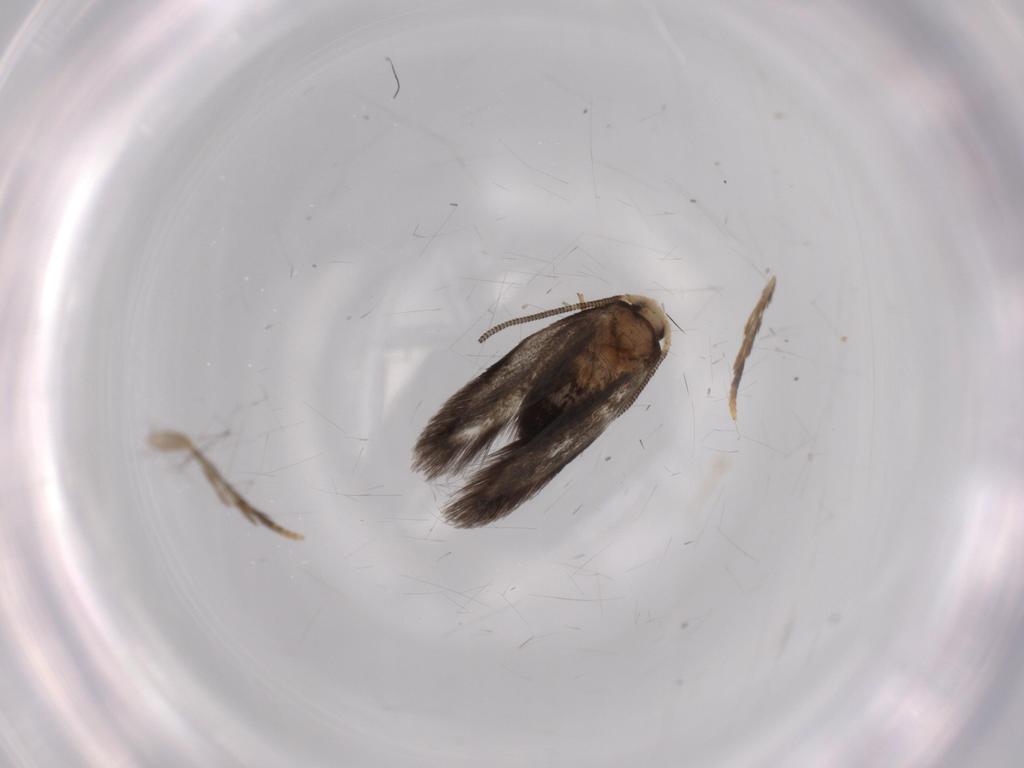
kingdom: Animalia
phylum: Arthropoda
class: Insecta
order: Lepidoptera
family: Nepticulidae
